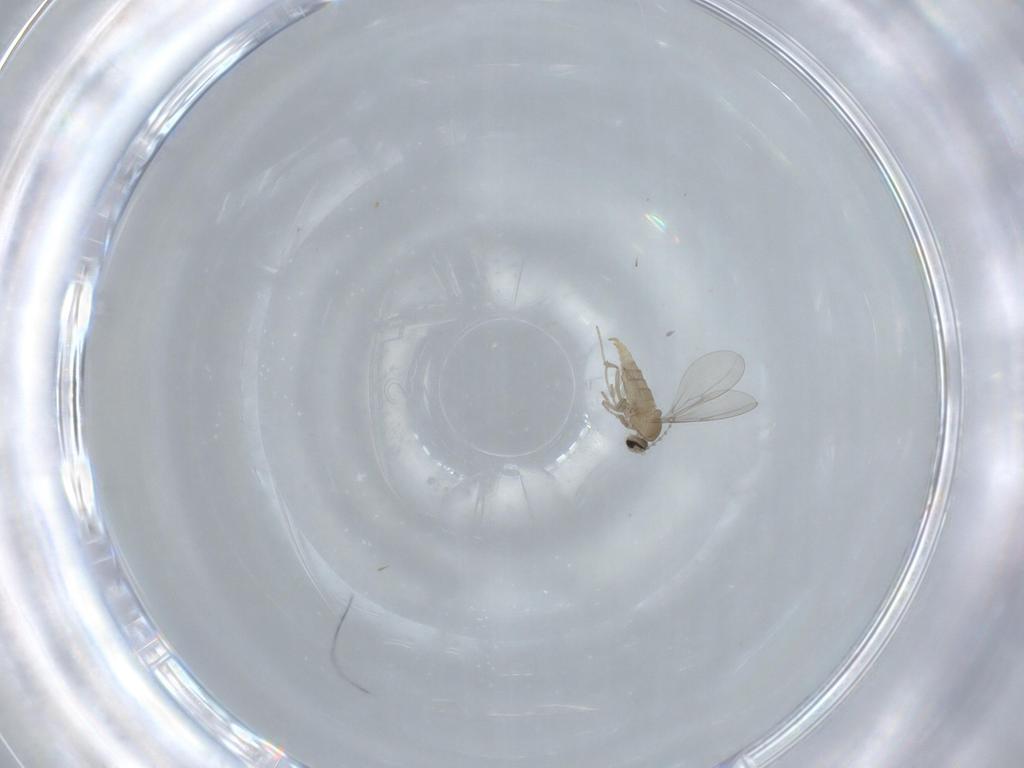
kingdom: Animalia
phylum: Arthropoda
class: Insecta
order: Diptera
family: Cecidomyiidae
